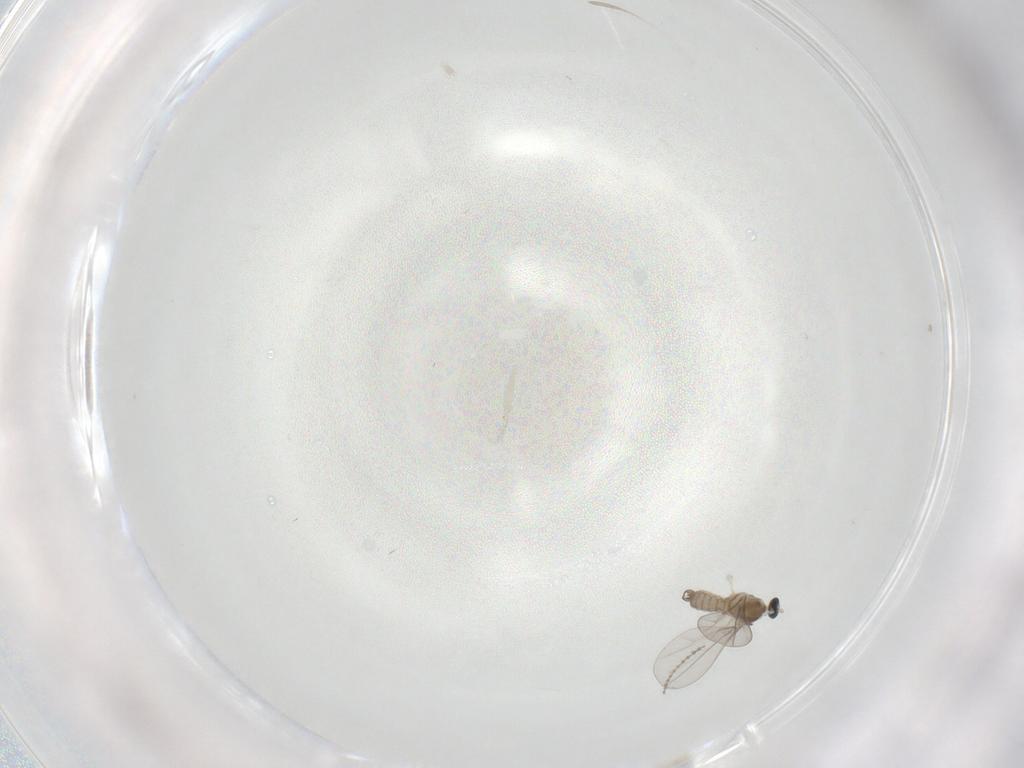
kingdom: Animalia
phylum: Arthropoda
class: Insecta
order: Diptera
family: Cecidomyiidae
